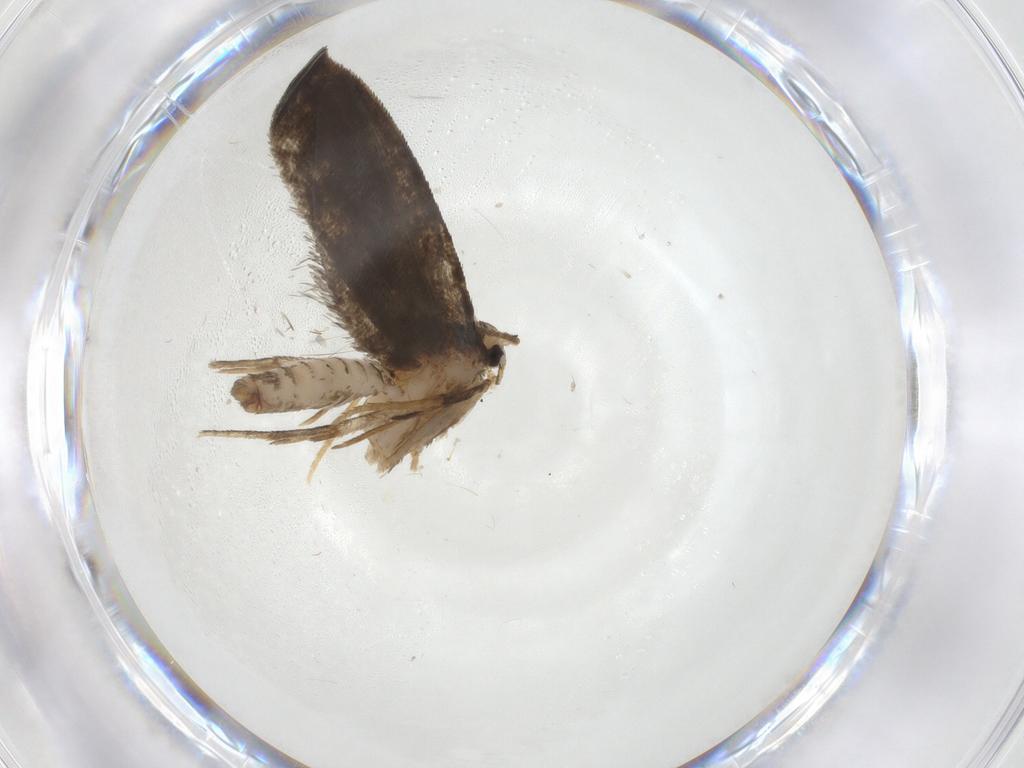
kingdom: Animalia
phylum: Arthropoda
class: Insecta
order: Lepidoptera
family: Psychidae
